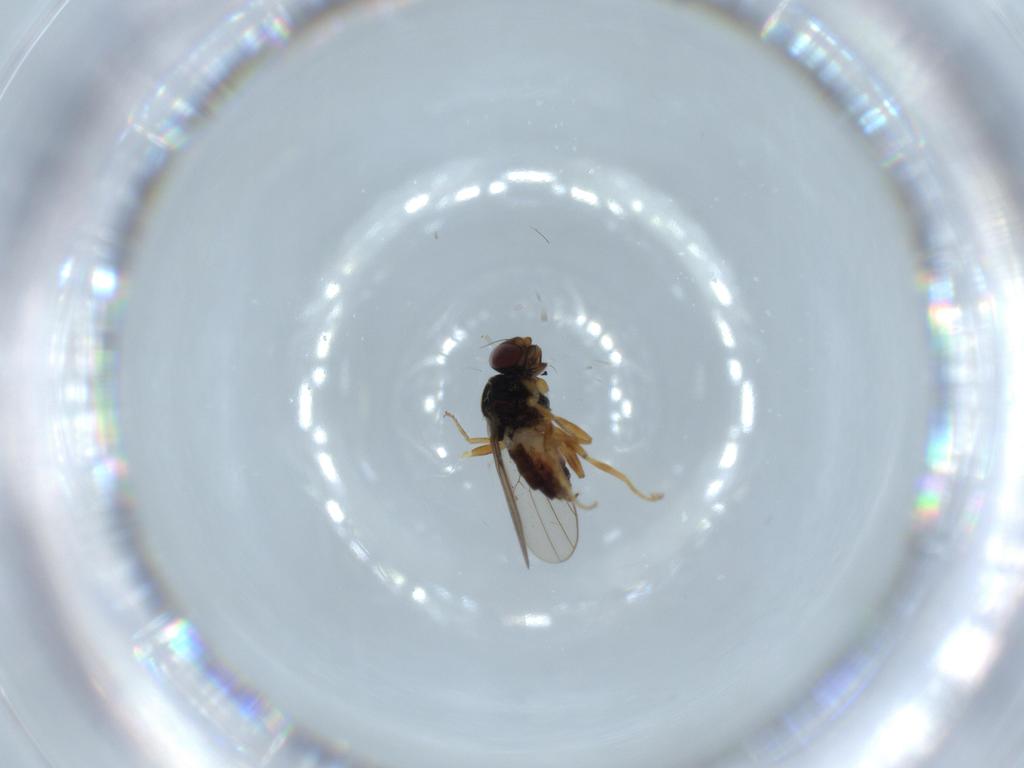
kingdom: Animalia
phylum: Arthropoda
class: Insecta
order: Diptera
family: Chloropidae
